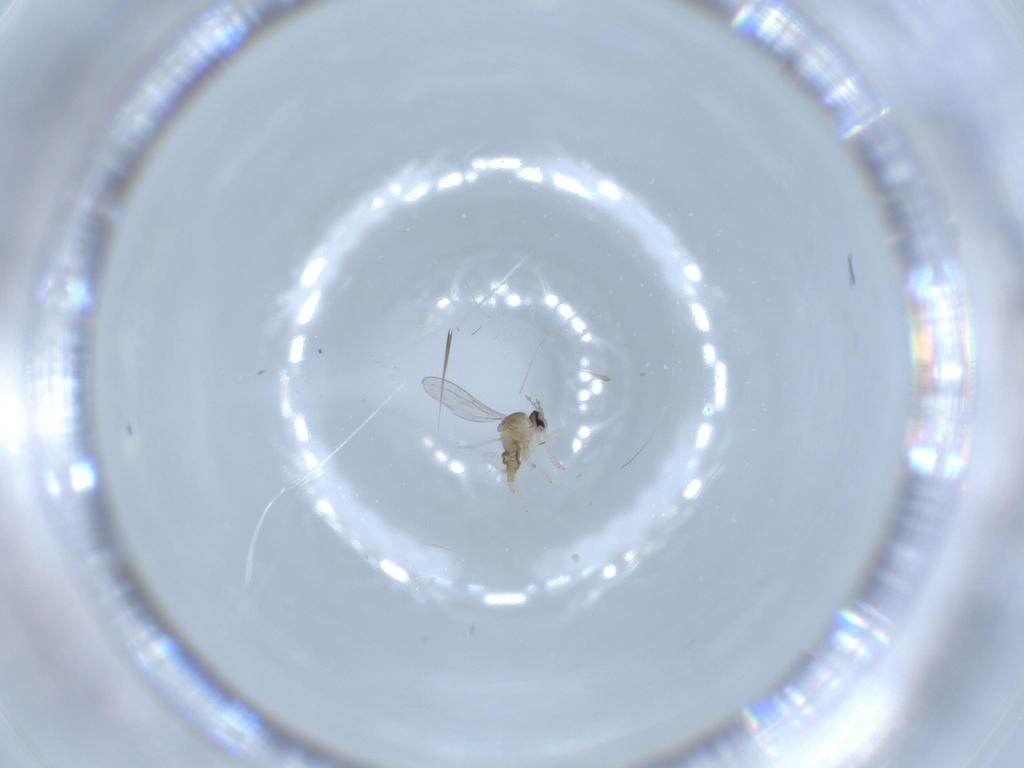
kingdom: Animalia
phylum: Arthropoda
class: Insecta
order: Diptera
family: Cecidomyiidae
